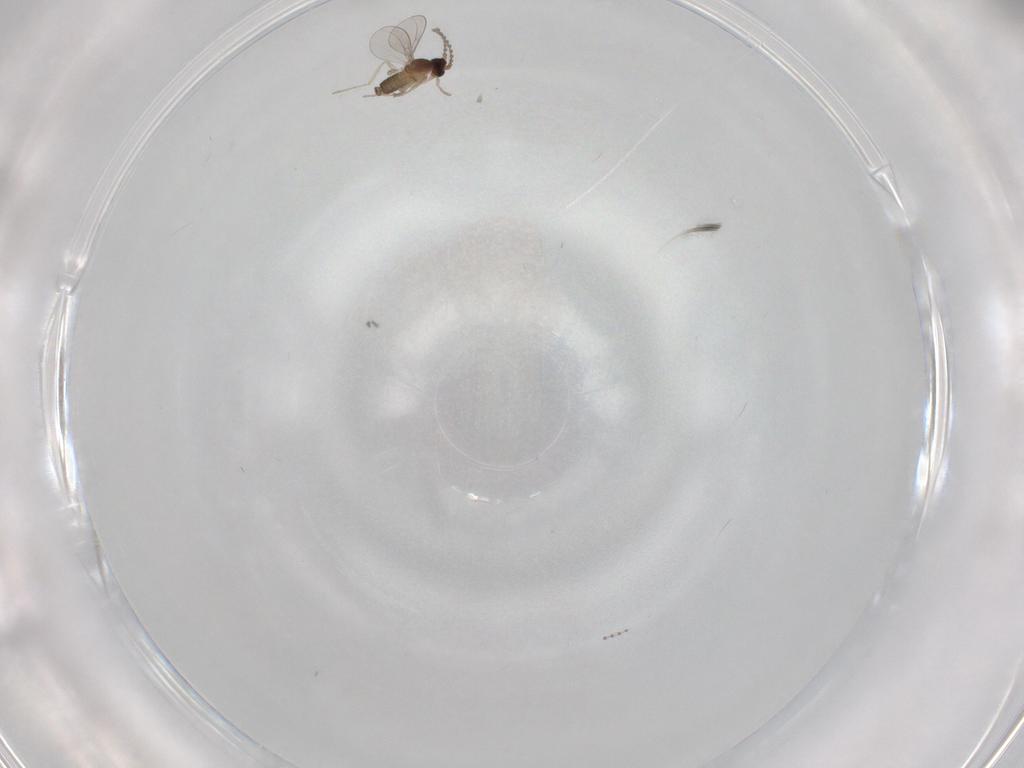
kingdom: Animalia
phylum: Arthropoda
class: Insecta
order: Diptera
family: Cecidomyiidae
